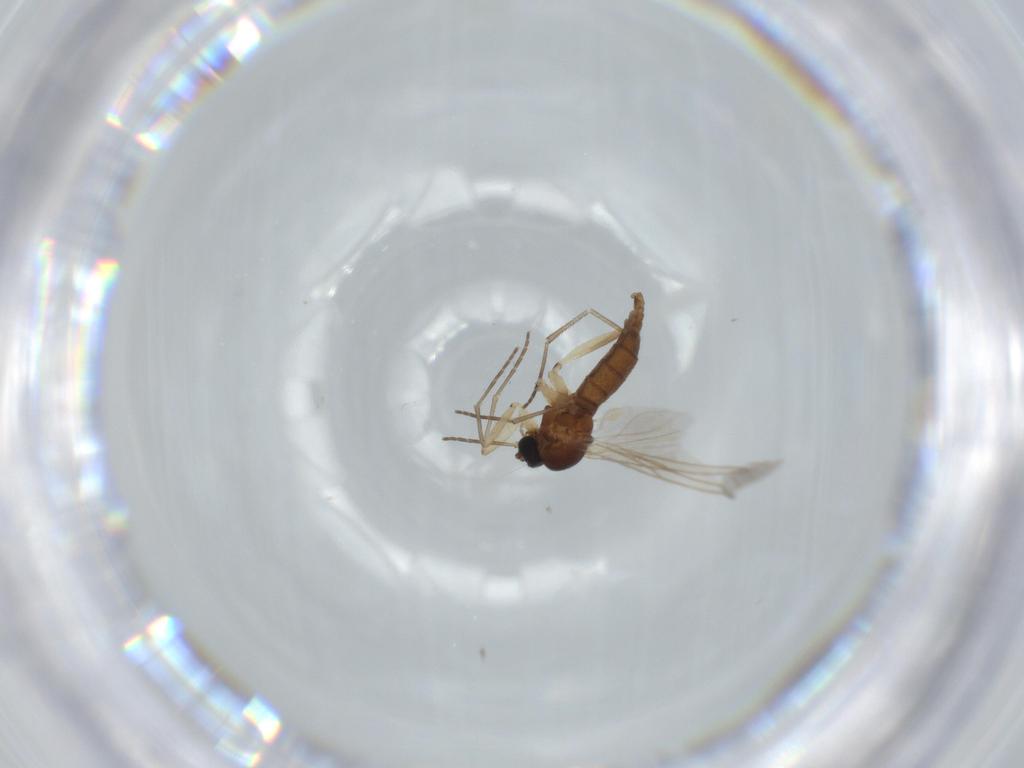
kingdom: Animalia
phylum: Arthropoda
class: Insecta
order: Diptera
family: Sciaridae
